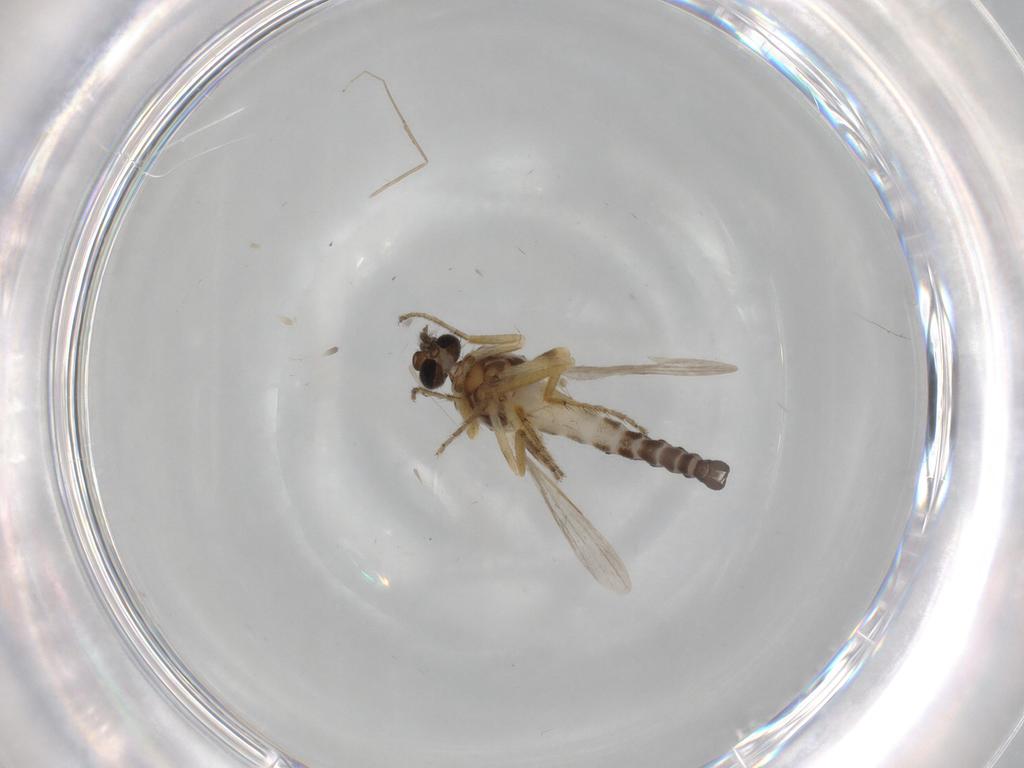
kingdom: Animalia
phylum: Arthropoda
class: Insecta
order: Diptera
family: Ceratopogonidae
